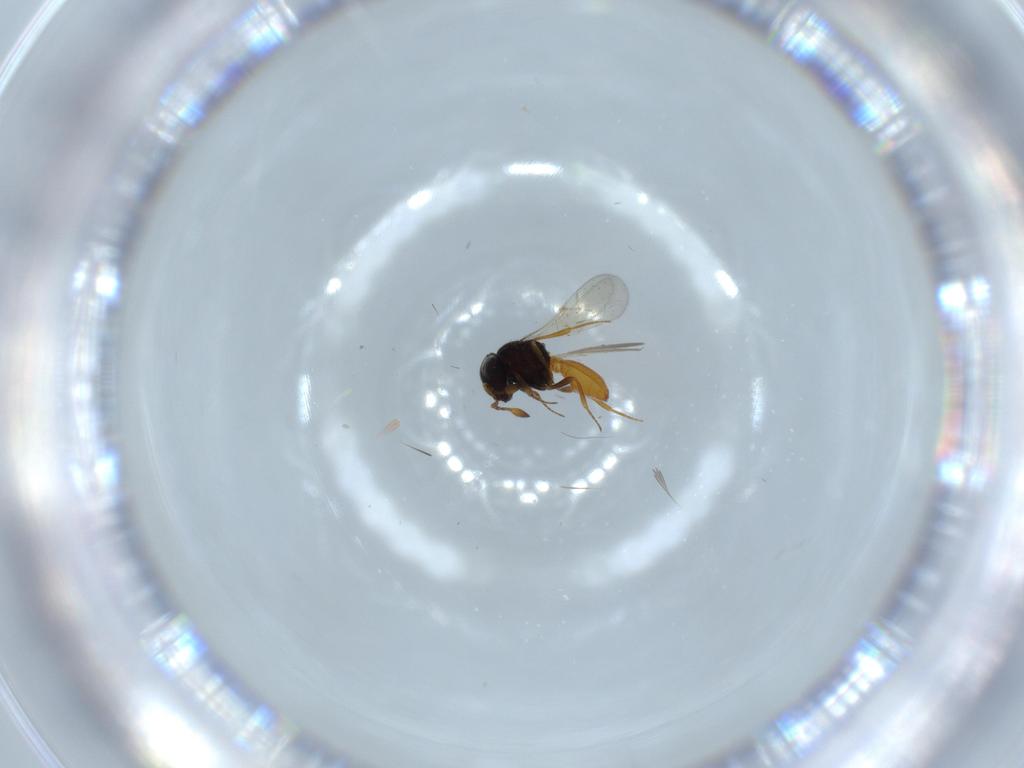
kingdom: Animalia
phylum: Arthropoda
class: Insecta
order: Hymenoptera
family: Scelionidae
